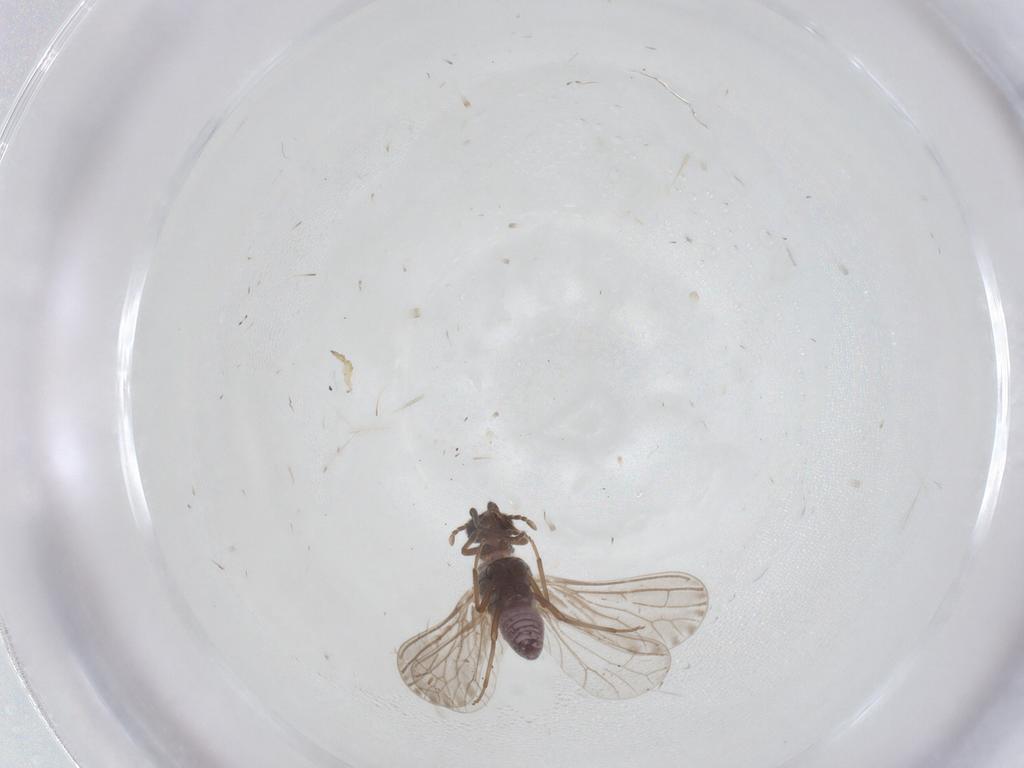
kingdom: Animalia
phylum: Arthropoda
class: Insecta
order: Neuroptera
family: Coniopterygidae
